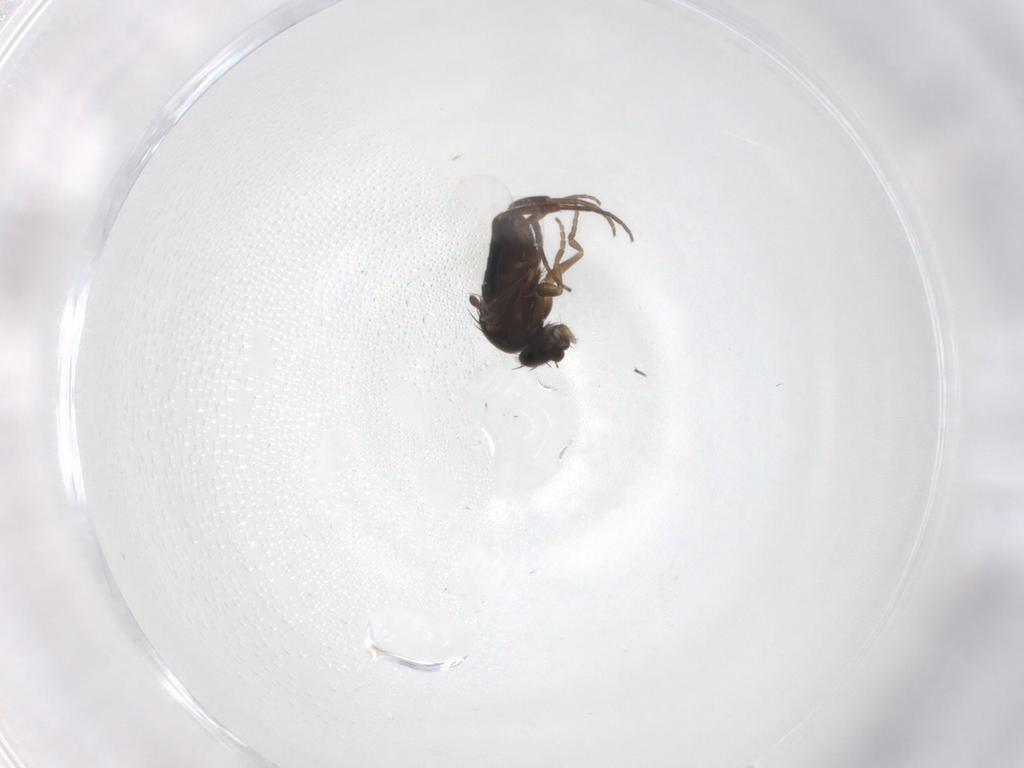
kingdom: Animalia
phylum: Arthropoda
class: Insecta
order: Diptera
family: Phoridae
